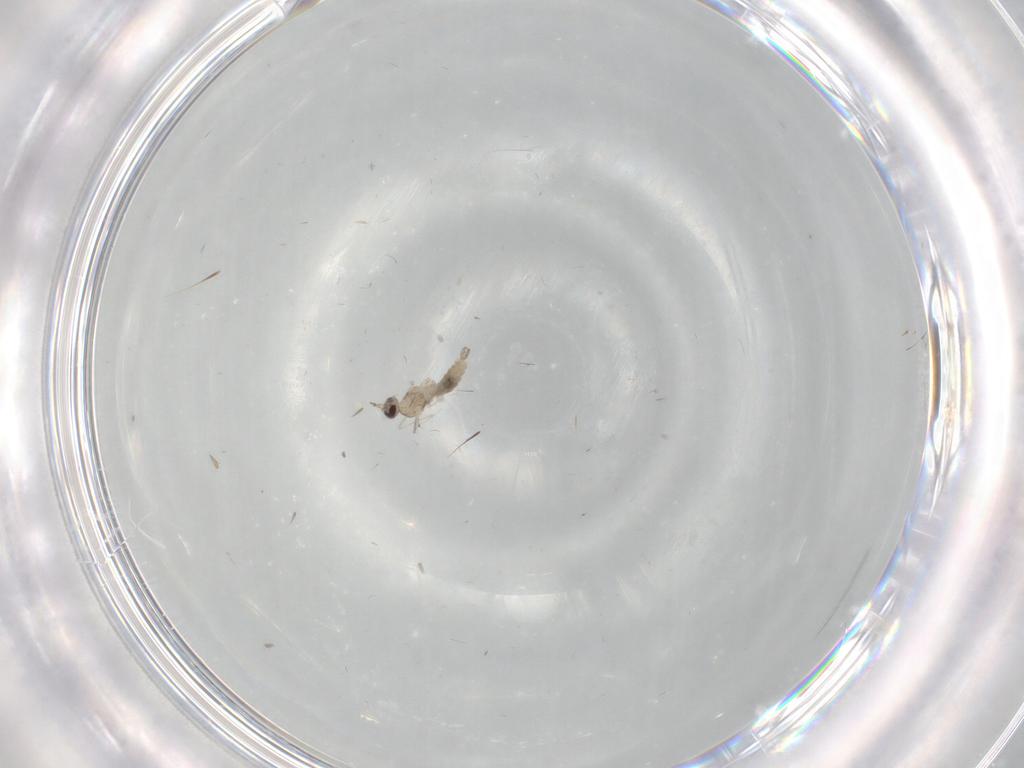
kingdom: Animalia
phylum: Arthropoda
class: Insecta
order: Diptera
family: Cecidomyiidae
